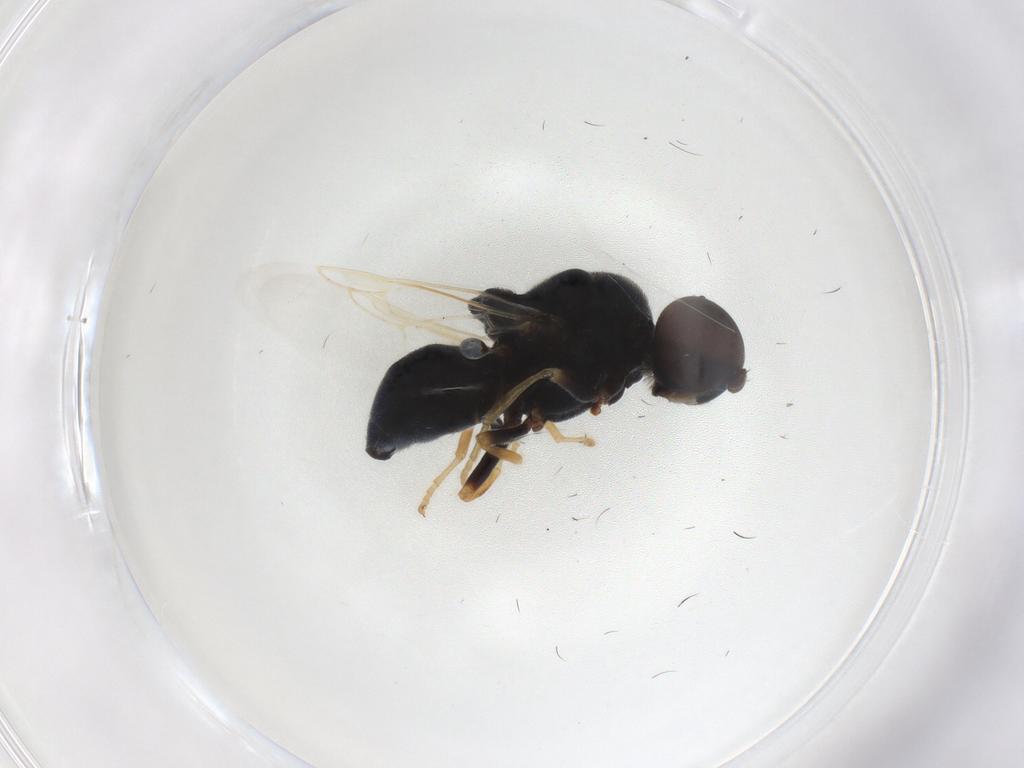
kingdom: Animalia
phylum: Arthropoda
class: Insecta
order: Diptera
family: Stratiomyidae
